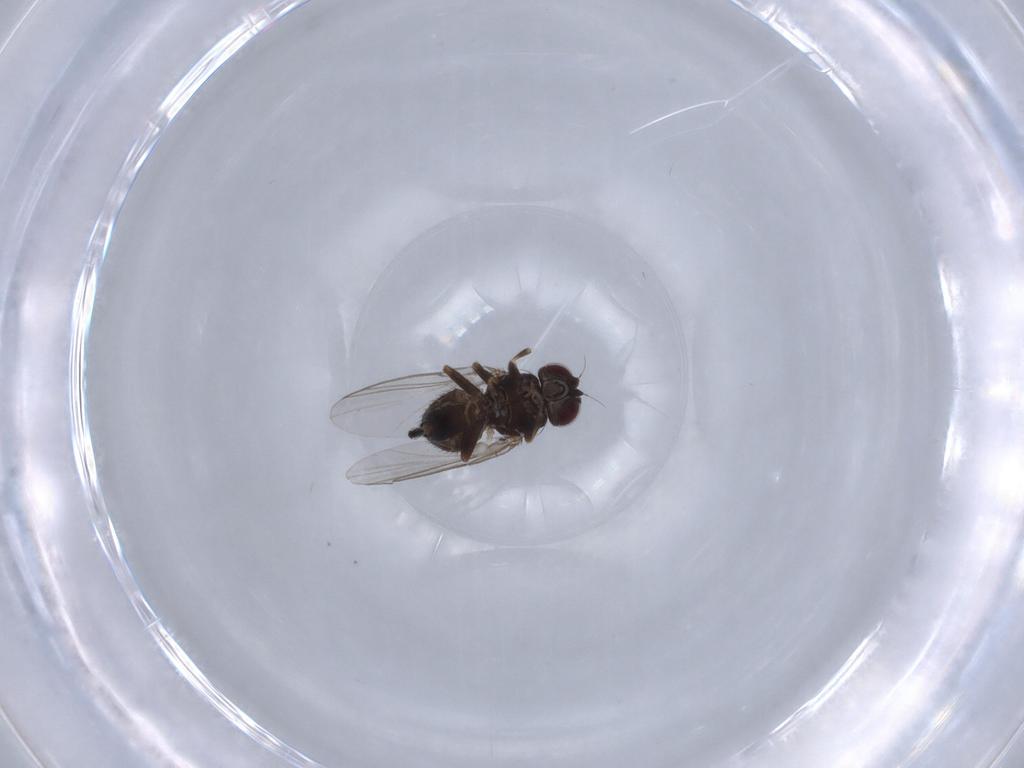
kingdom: Animalia
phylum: Arthropoda
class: Insecta
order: Diptera
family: Agromyzidae
